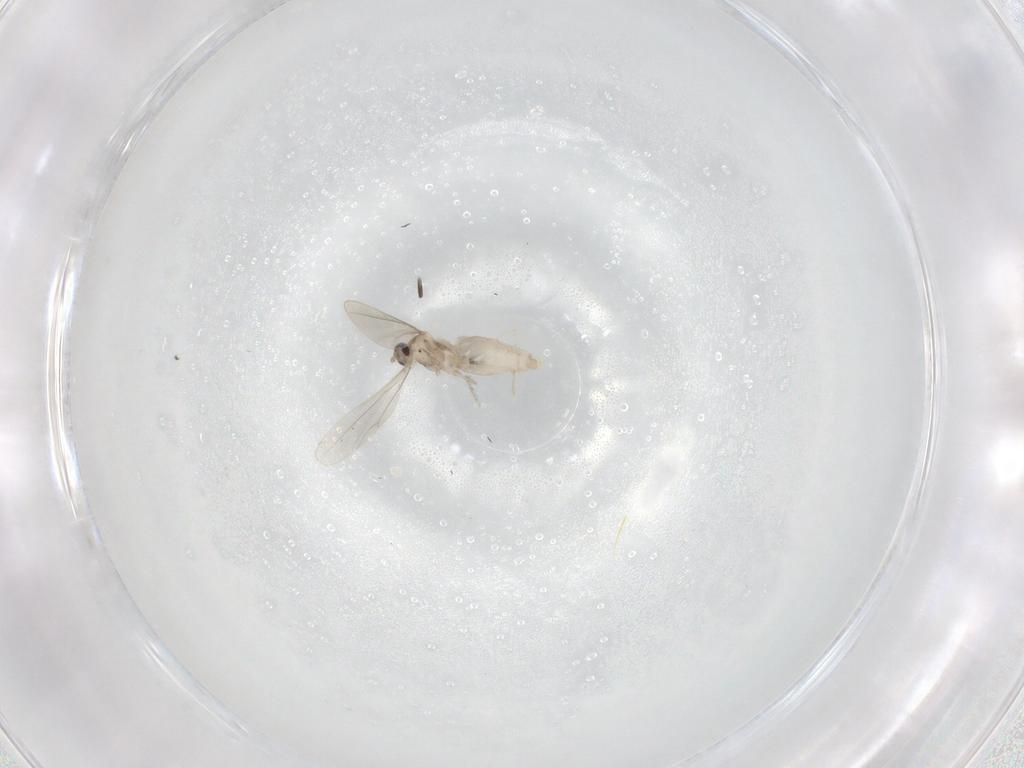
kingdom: Animalia
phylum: Arthropoda
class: Insecta
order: Diptera
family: Cecidomyiidae
